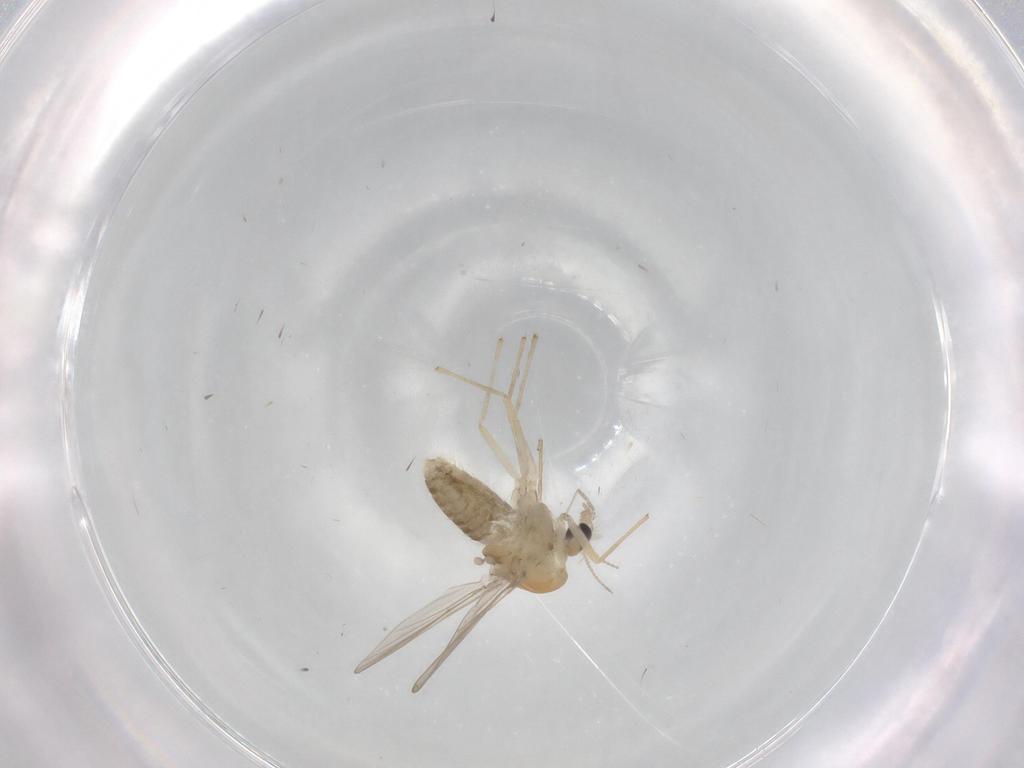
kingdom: Animalia
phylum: Arthropoda
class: Insecta
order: Diptera
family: Chironomidae
